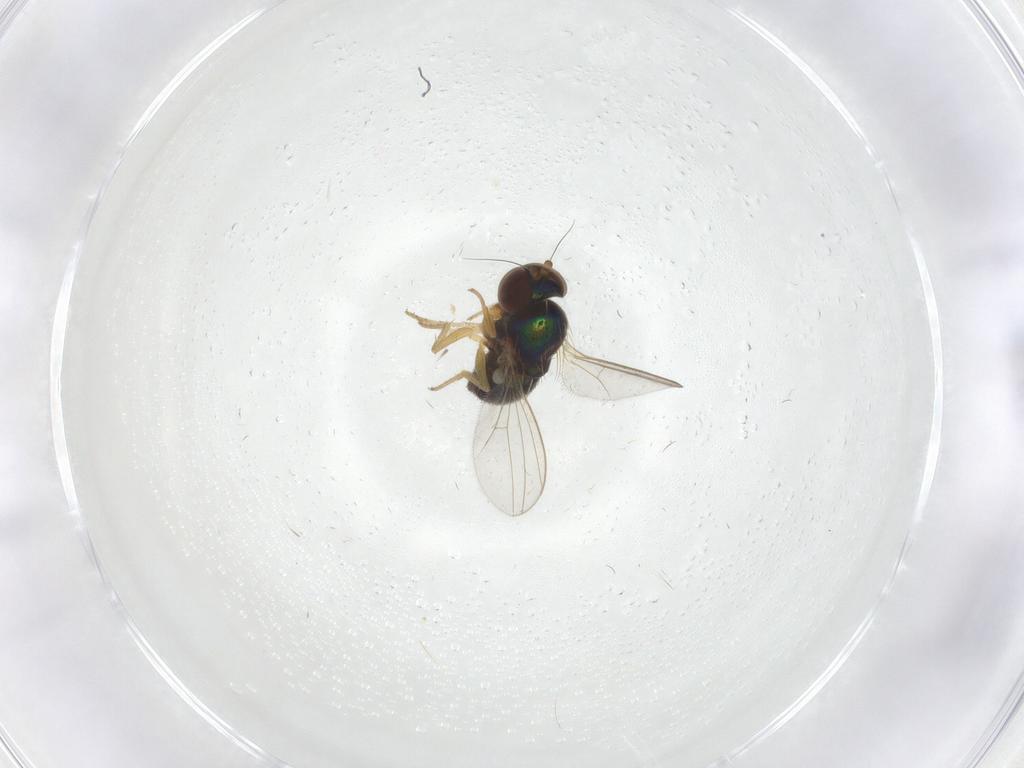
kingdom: Animalia
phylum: Arthropoda
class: Insecta
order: Diptera
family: Dolichopodidae
